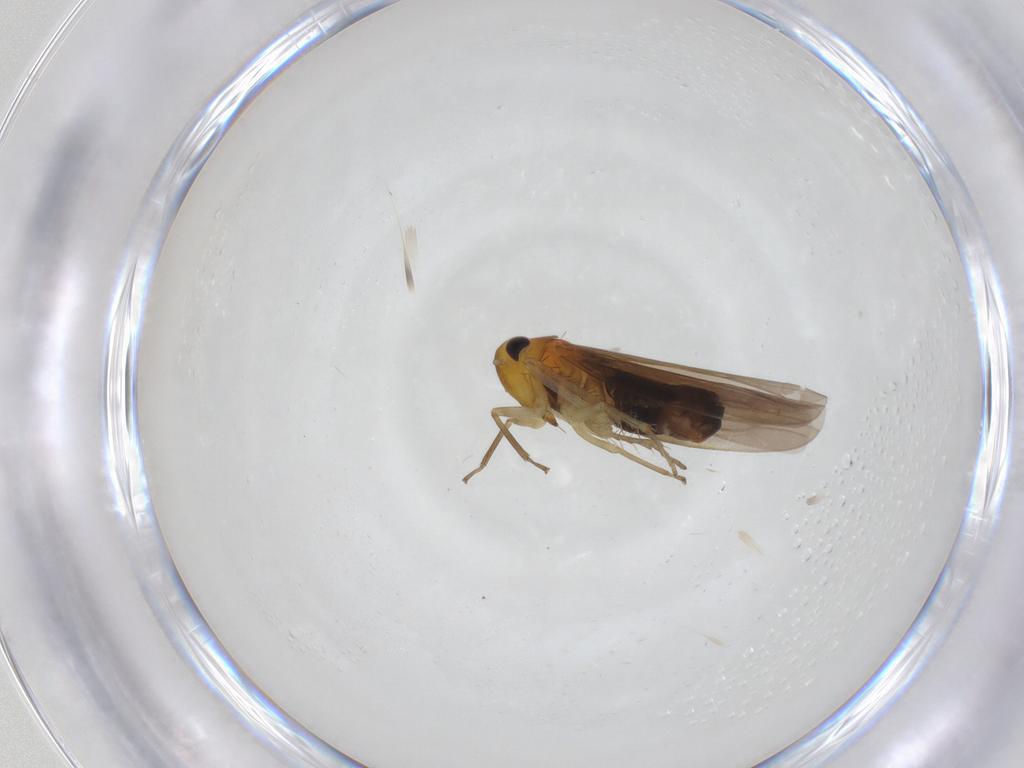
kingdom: Animalia
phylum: Arthropoda
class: Insecta
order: Hemiptera
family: Cicadellidae
